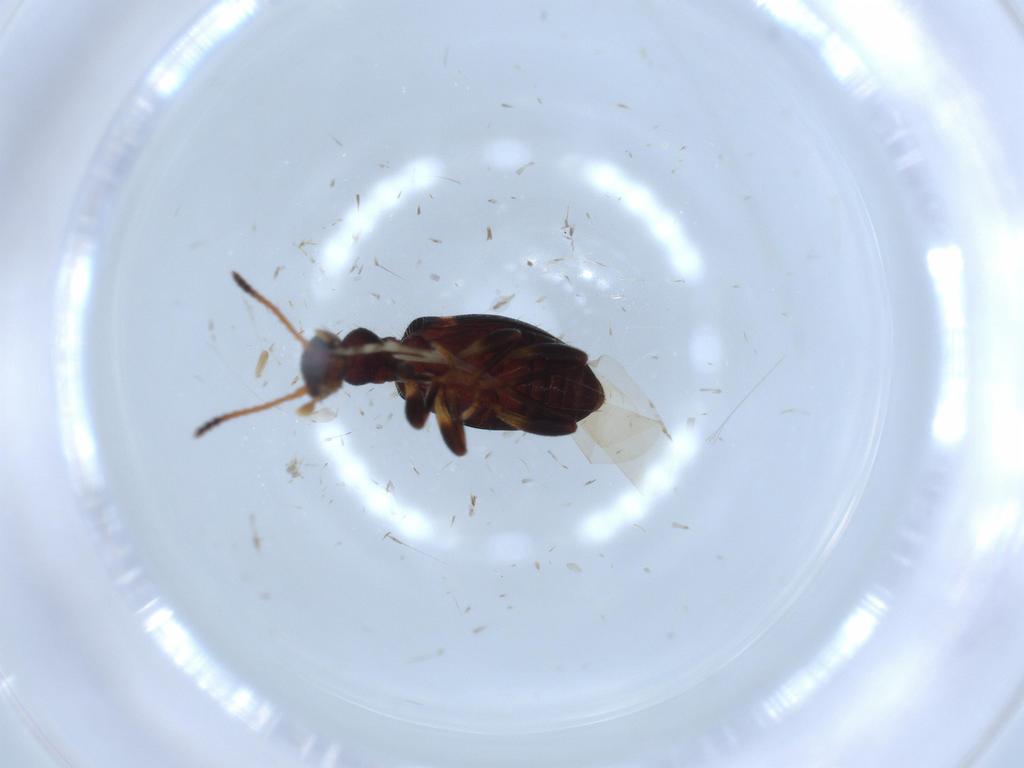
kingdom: Animalia
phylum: Arthropoda
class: Insecta
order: Coleoptera
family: Anthicidae
